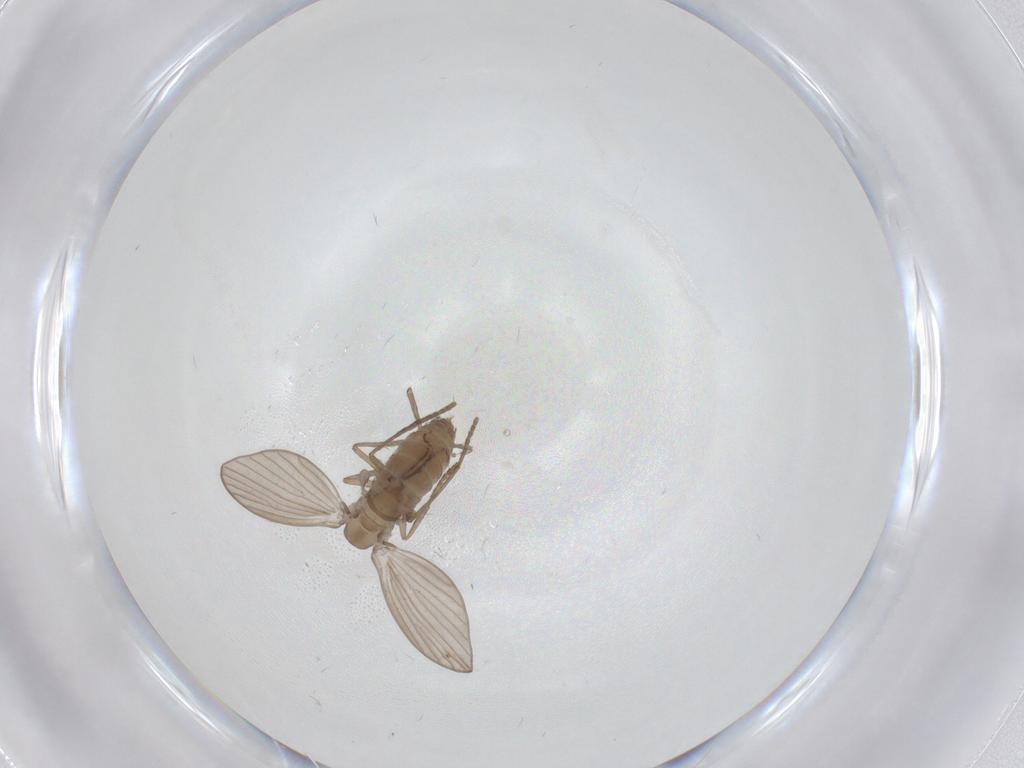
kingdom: Animalia
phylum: Arthropoda
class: Insecta
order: Diptera
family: Psychodidae
